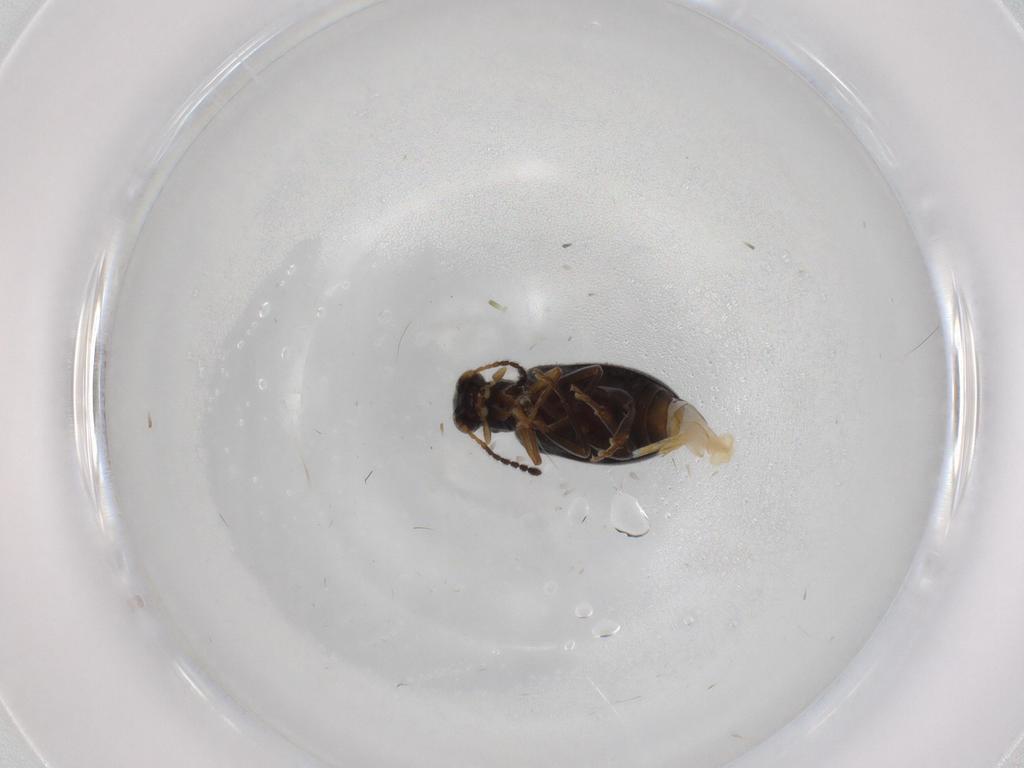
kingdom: Animalia
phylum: Arthropoda
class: Insecta
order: Coleoptera
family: Aderidae
